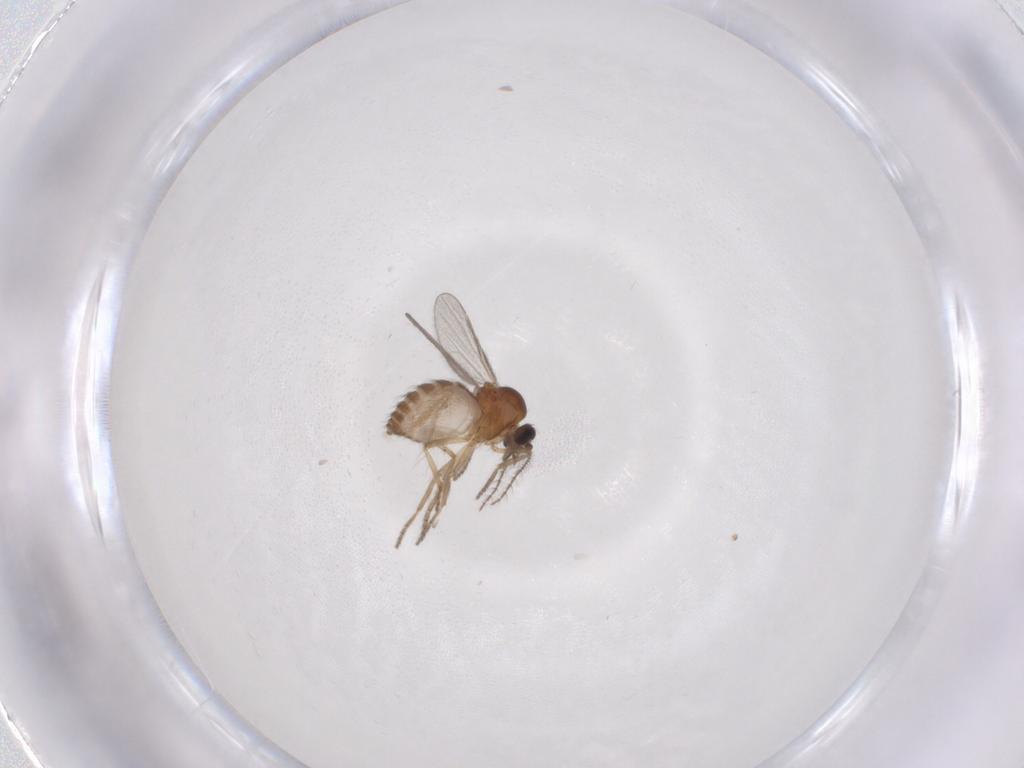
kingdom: Animalia
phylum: Arthropoda
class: Insecta
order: Diptera
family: Ceratopogonidae
